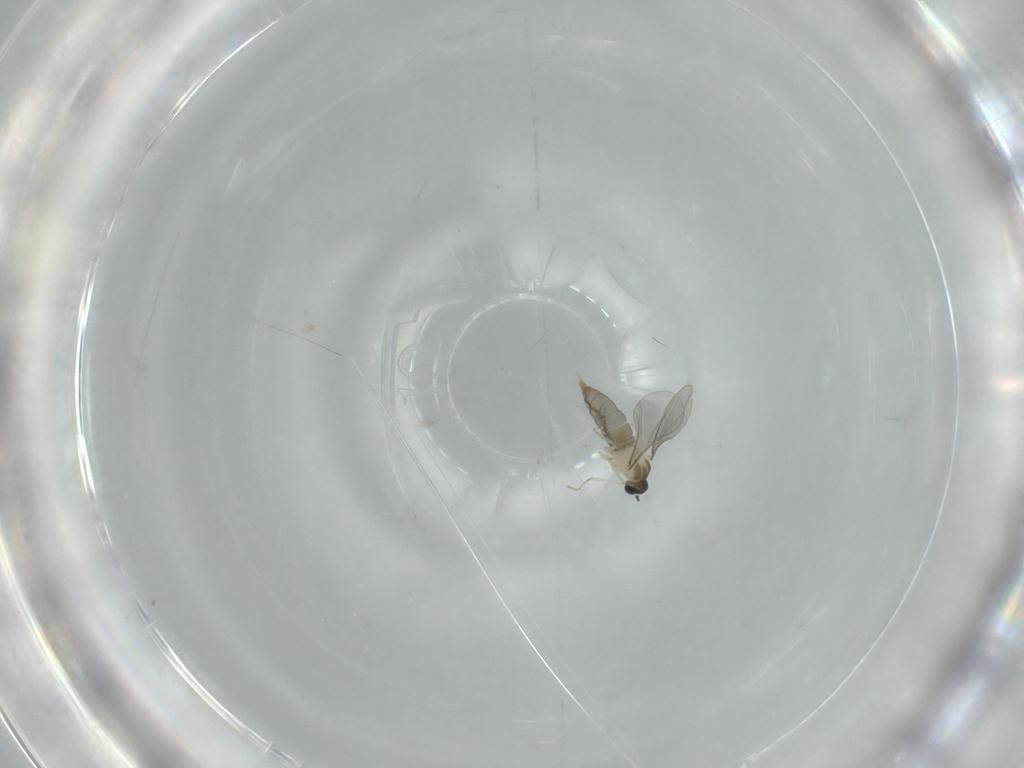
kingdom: Animalia
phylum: Arthropoda
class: Insecta
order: Diptera
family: Cecidomyiidae
